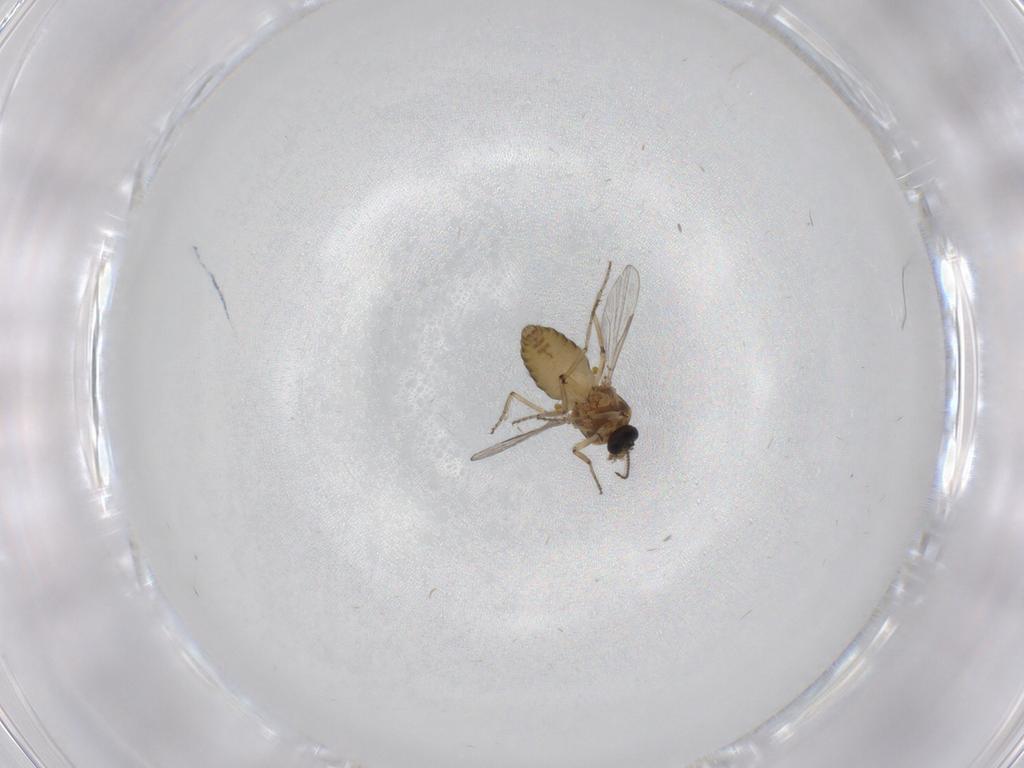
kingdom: Animalia
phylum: Arthropoda
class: Insecta
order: Diptera
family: Ceratopogonidae
